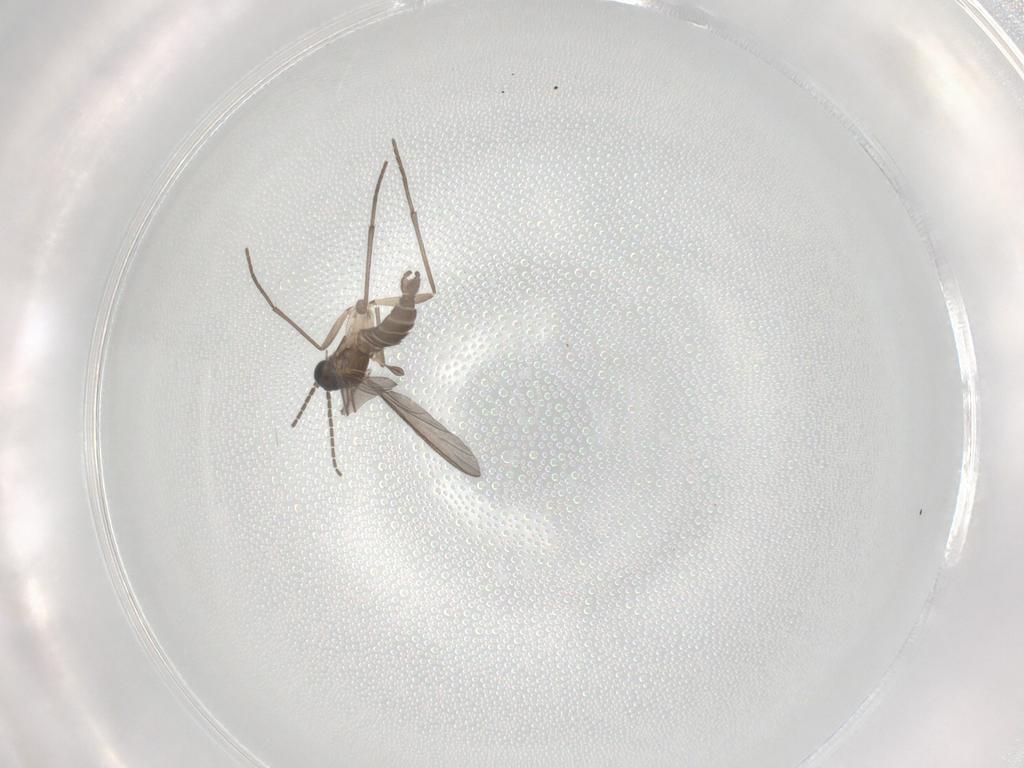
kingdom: Animalia
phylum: Arthropoda
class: Insecta
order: Diptera
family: Sciaridae
